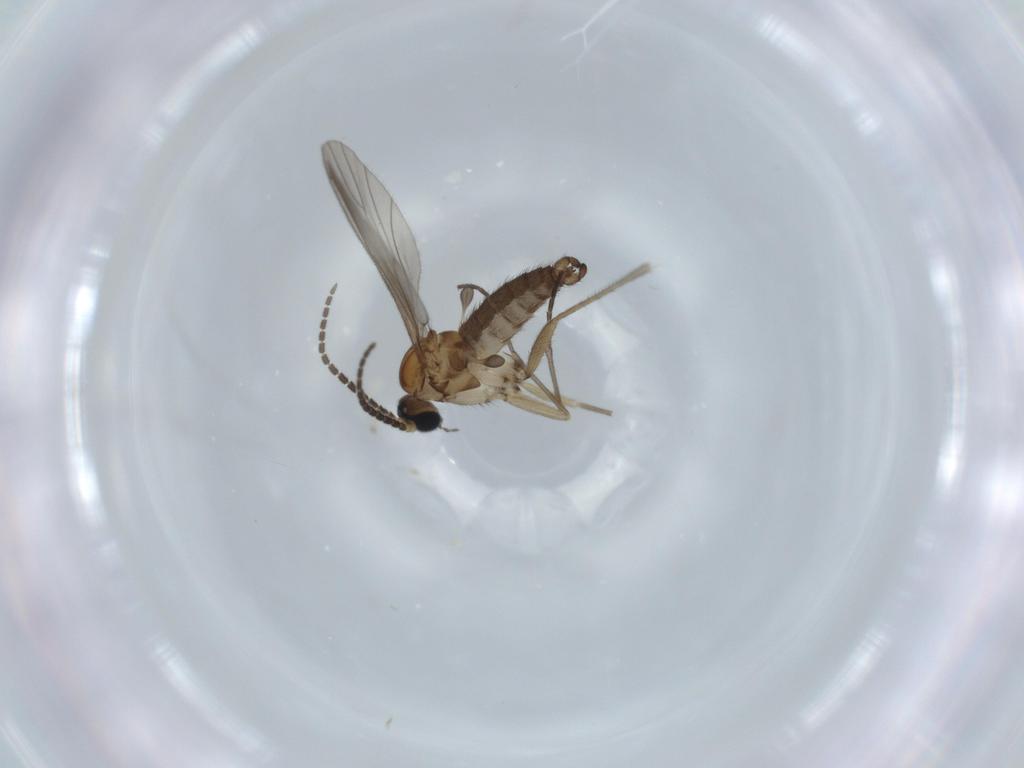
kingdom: Animalia
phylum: Arthropoda
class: Insecta
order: Diptera
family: Sciaridae
